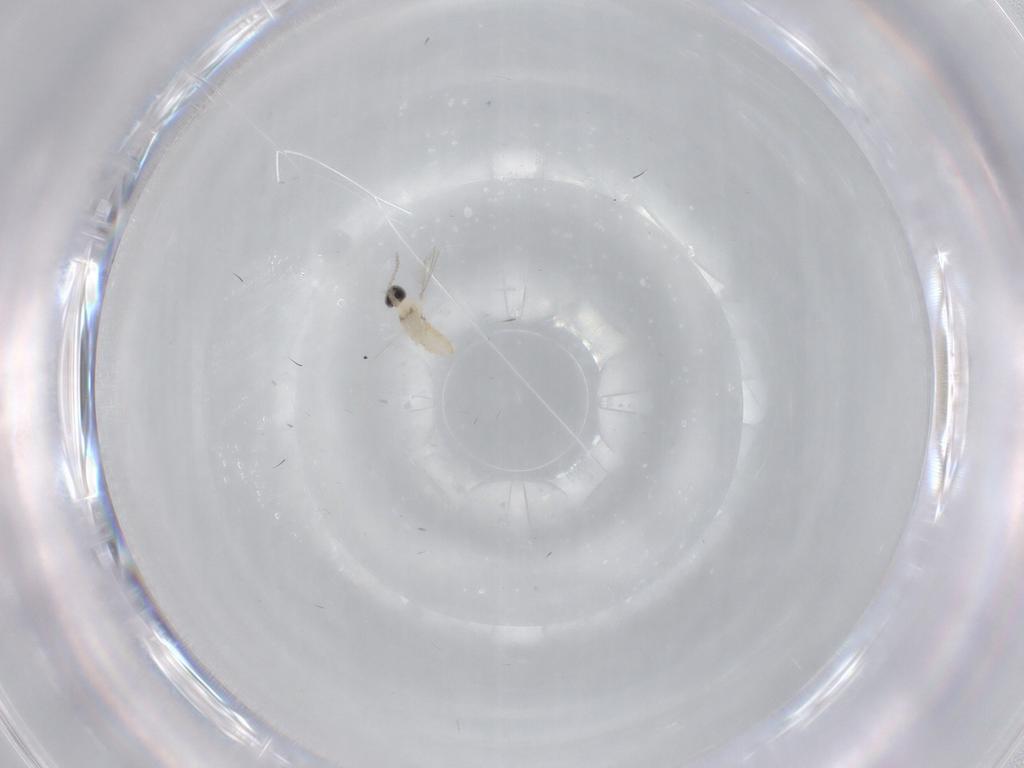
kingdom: Animalia
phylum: Arthropoda
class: Insecta
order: Diptera
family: Cecidomyiidae
